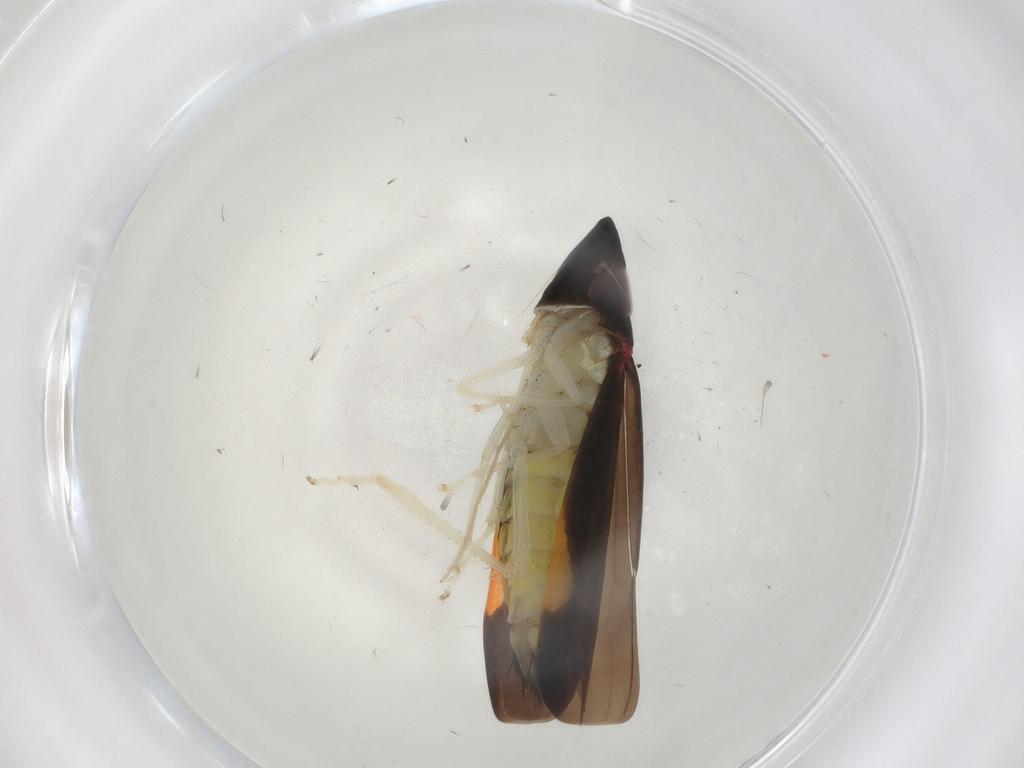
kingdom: Animalia
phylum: Arthropoda
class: Insecta
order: Hemiptera
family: Cicadellidae
